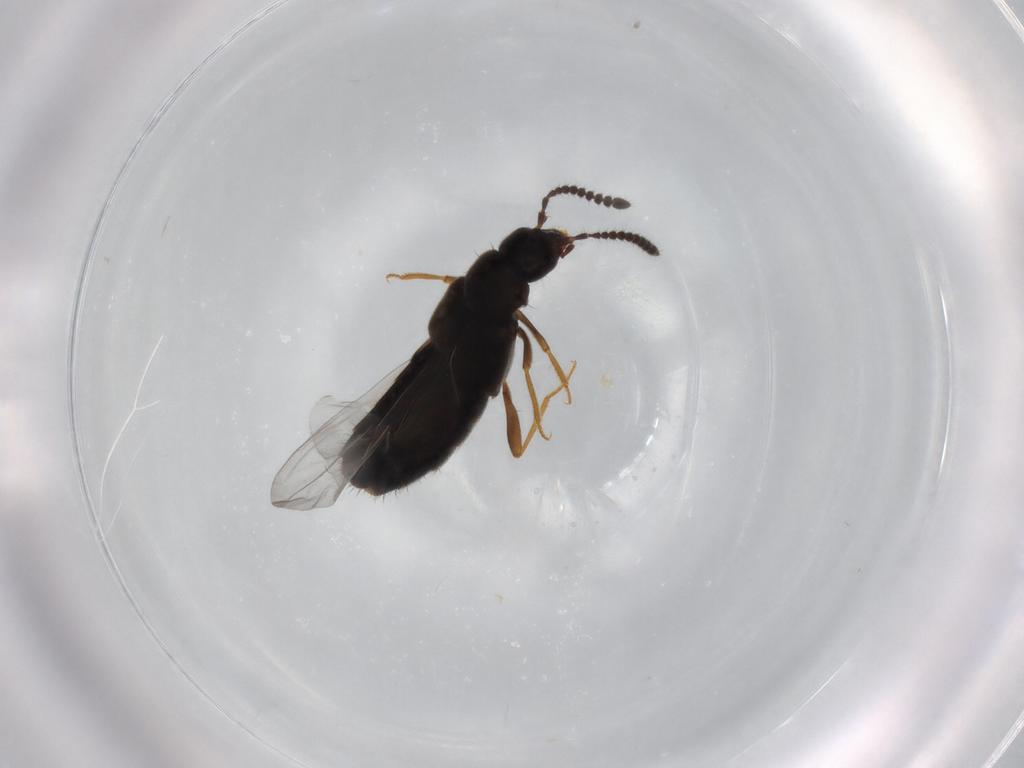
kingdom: Animalia
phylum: Arthropoda
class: Insecta
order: Coleoptera
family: Staphylinidae
